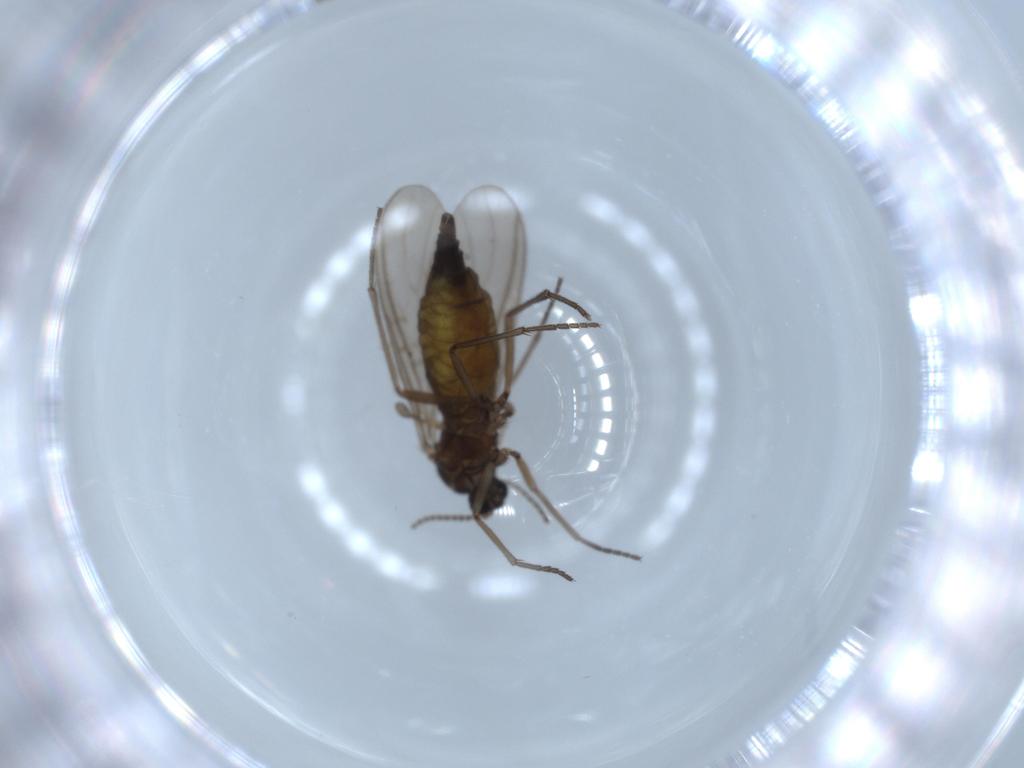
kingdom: Animalia
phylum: Arthropoda
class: Insecta
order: Diptera
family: Sciaridae
